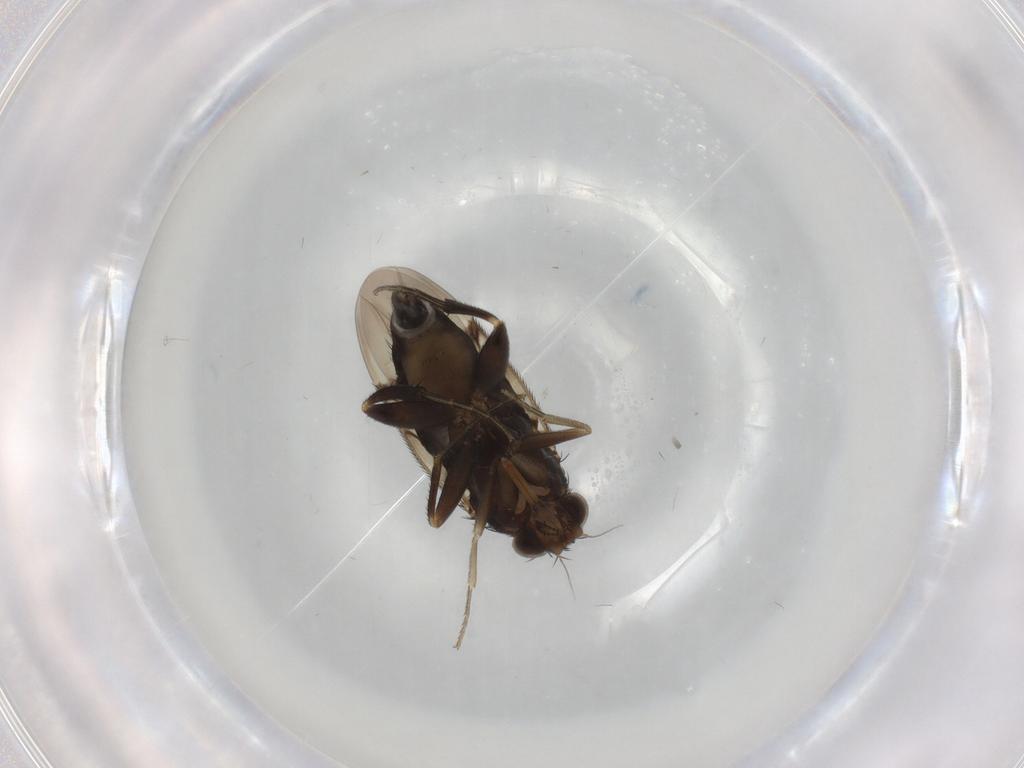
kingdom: Animalia
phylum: Arthropoda
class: Insecta
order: Diptera
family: Phoridae
